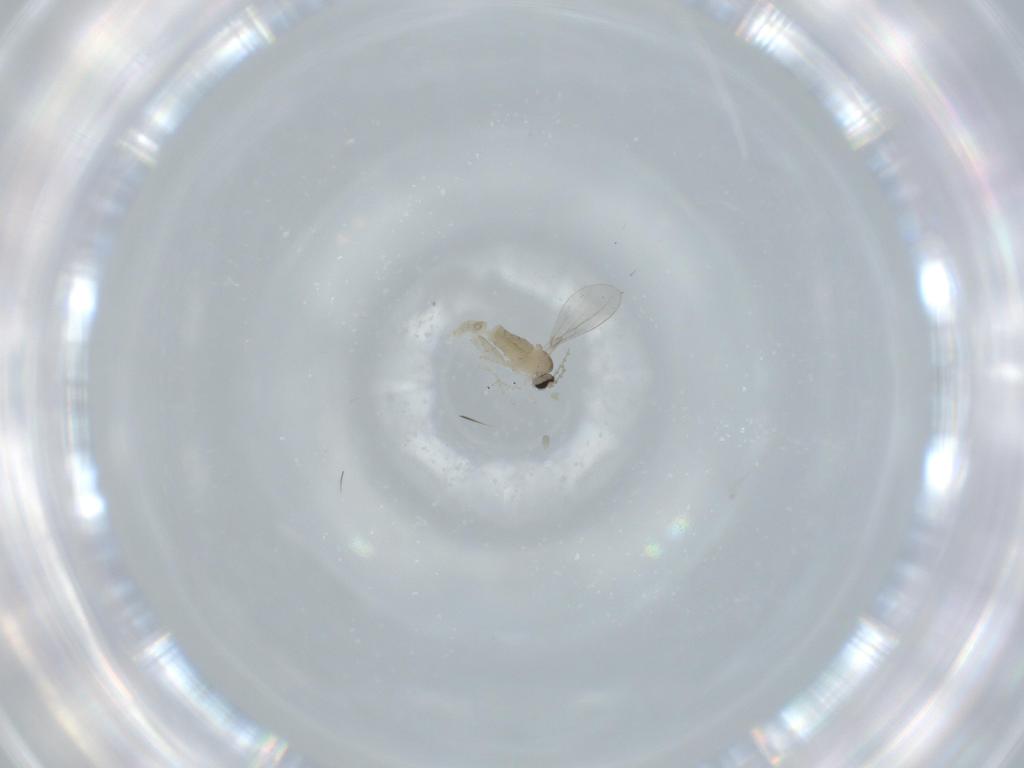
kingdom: Animalia
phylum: Arthropoda
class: Insecta
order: Diptera
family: Cecidomyiidae
